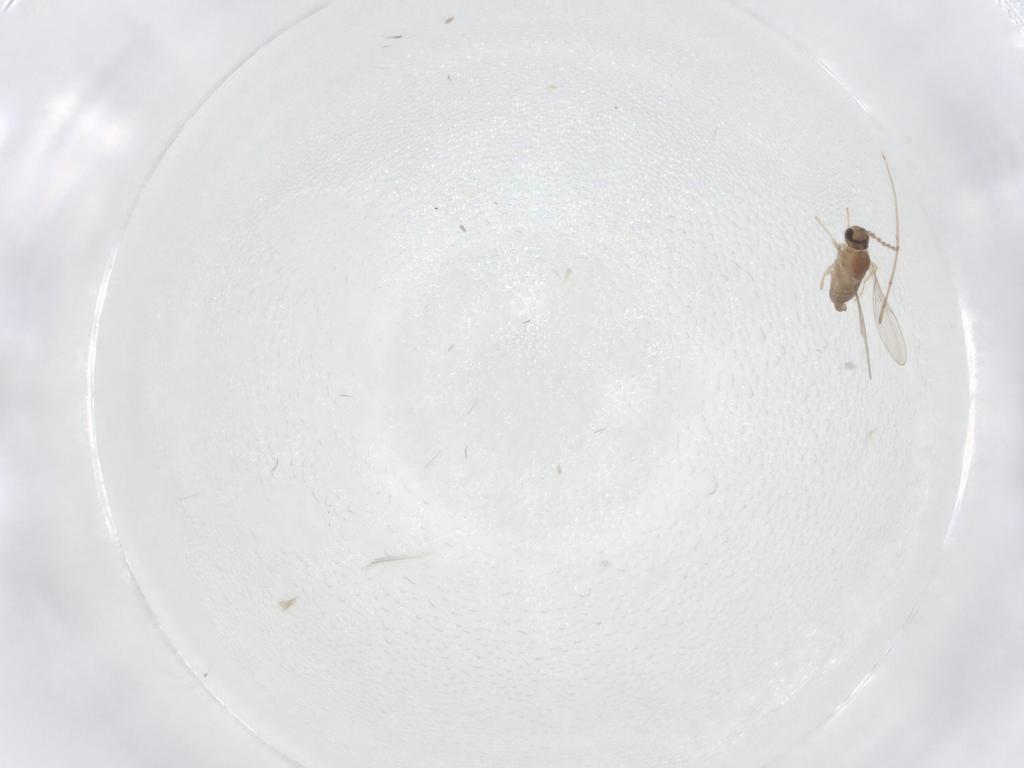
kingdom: Animalia
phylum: Arthropoda
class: Insecta
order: Diptera
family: Cecidomyiidae
